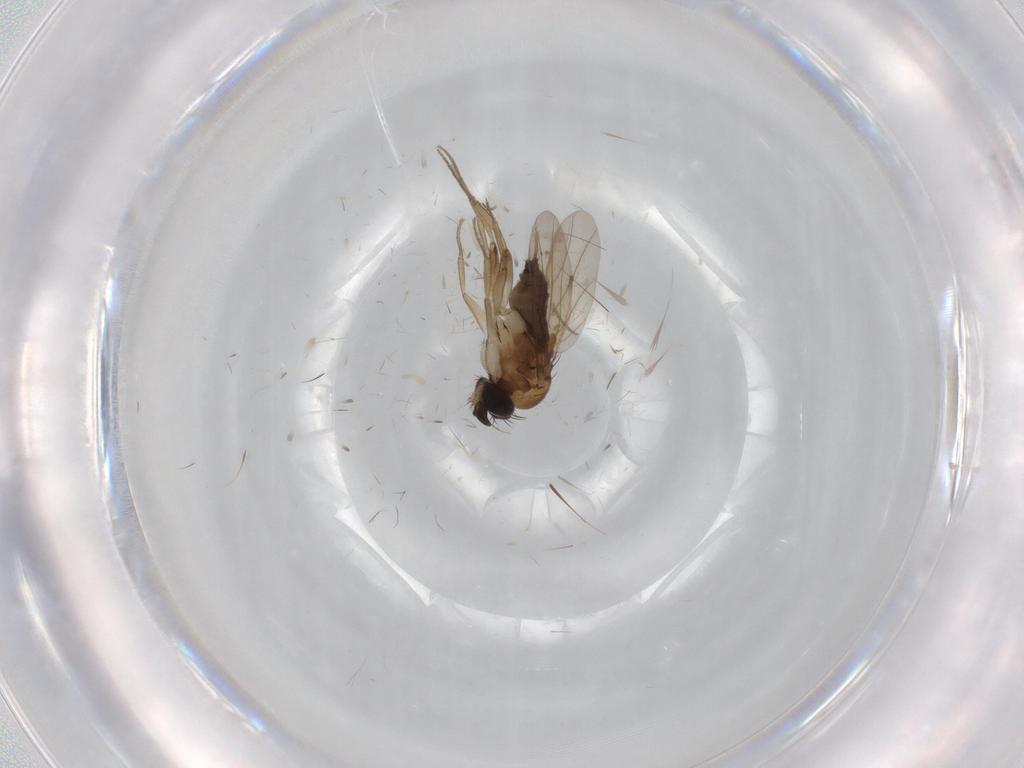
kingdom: Animalia
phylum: Arthropoda
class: Insecta
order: Diptera
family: Phoridae
